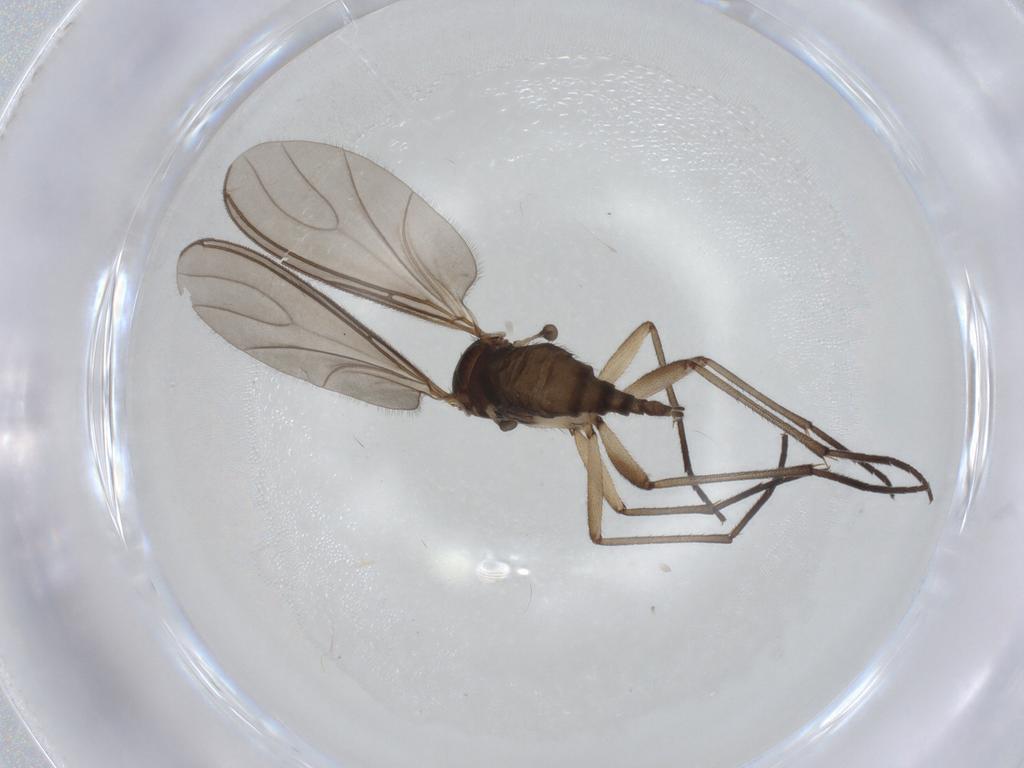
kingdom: Animalia
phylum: Arthropoda
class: Insecta
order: Diptera
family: Sciaridae
